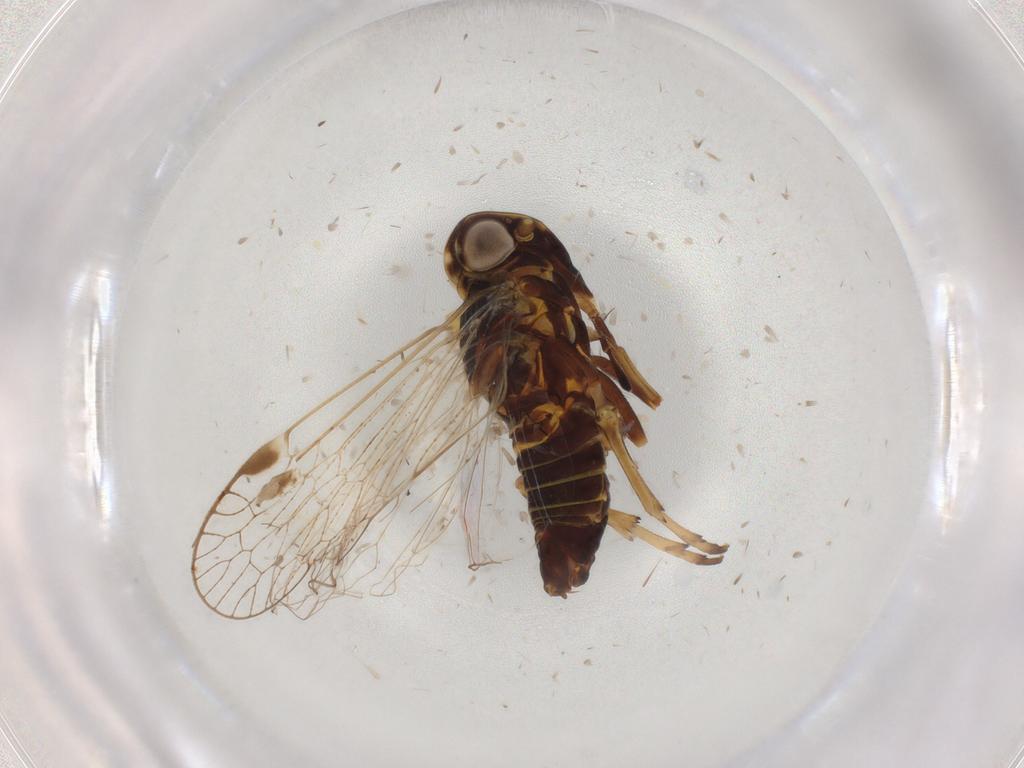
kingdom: Animalia
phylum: Arthropoda
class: Insecta
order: Hemiptera
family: Cixiidae
